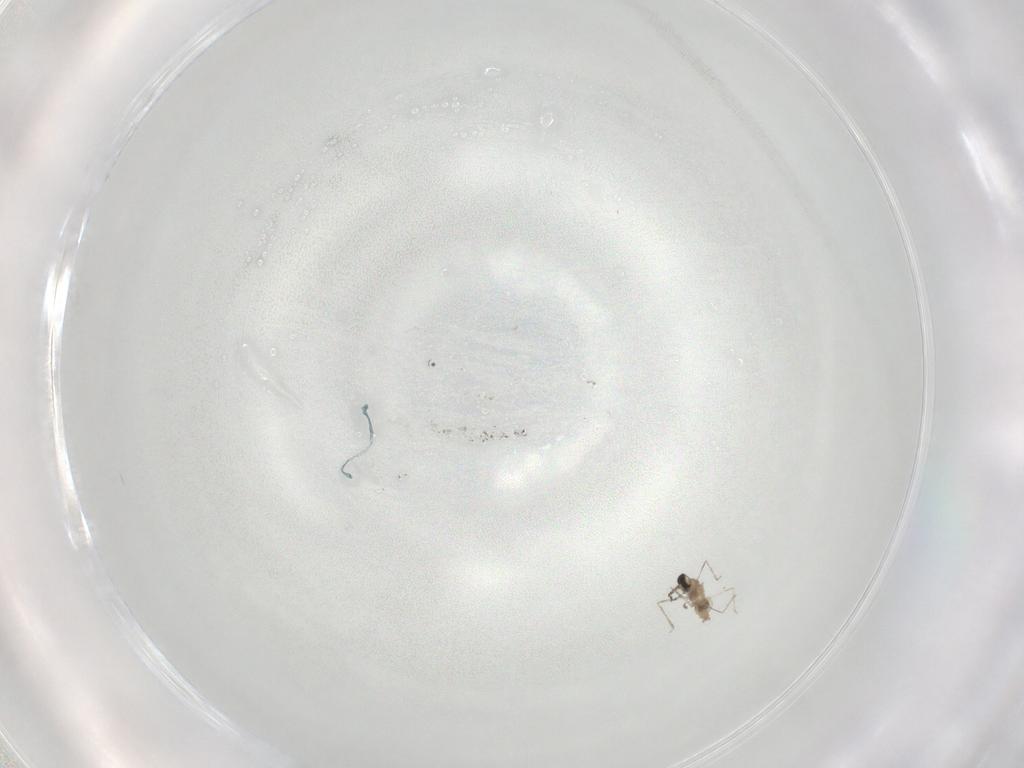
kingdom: Animalia
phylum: Arthropoda
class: Insecta
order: Diptera
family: Cecidomyiidae
